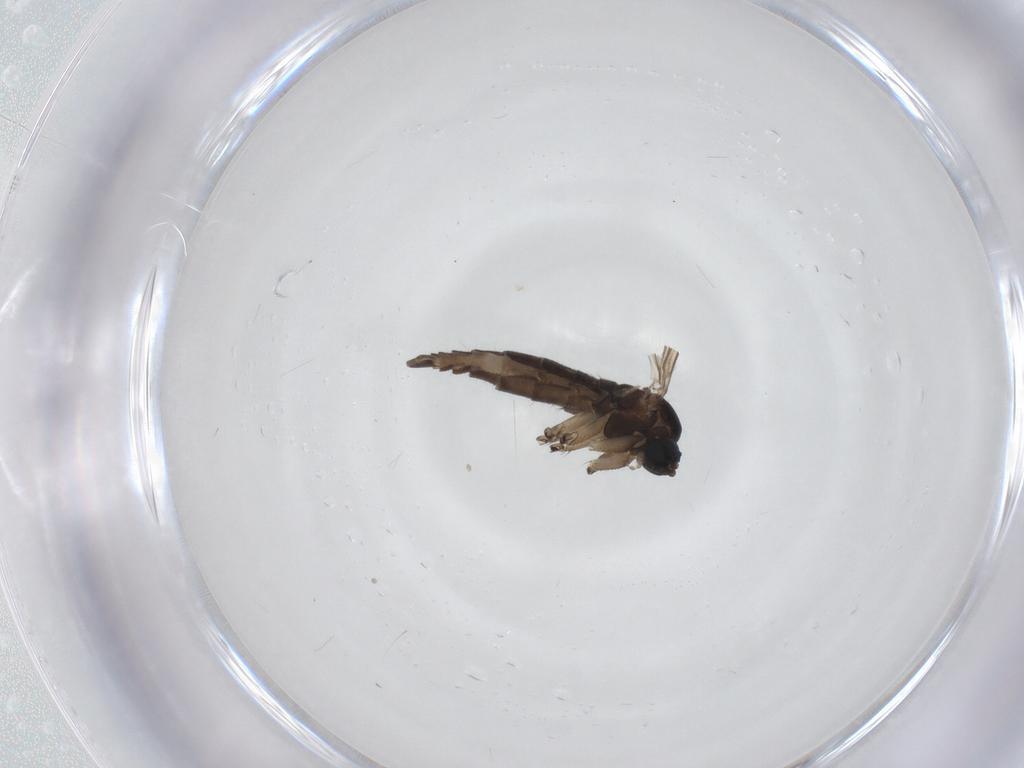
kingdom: Animalia
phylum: Arthropoda
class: Insecta
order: Diptera
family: Sciaridae
